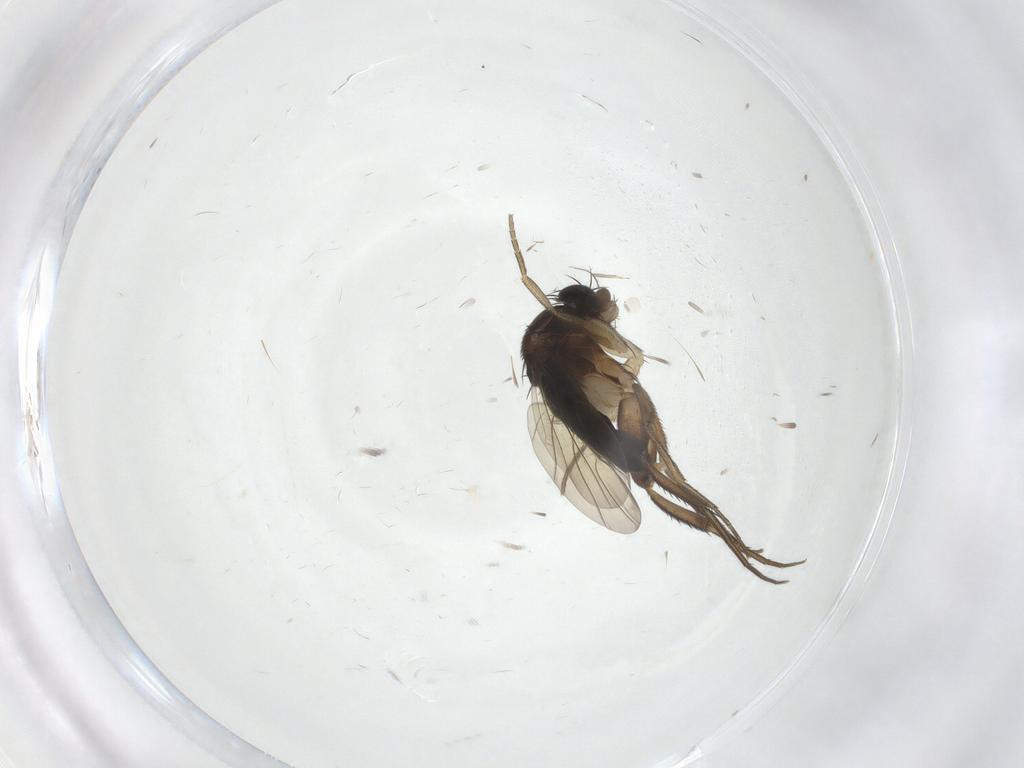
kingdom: Animalia
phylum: Arthropoda
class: Insecta
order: Diptera
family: Phoridae
